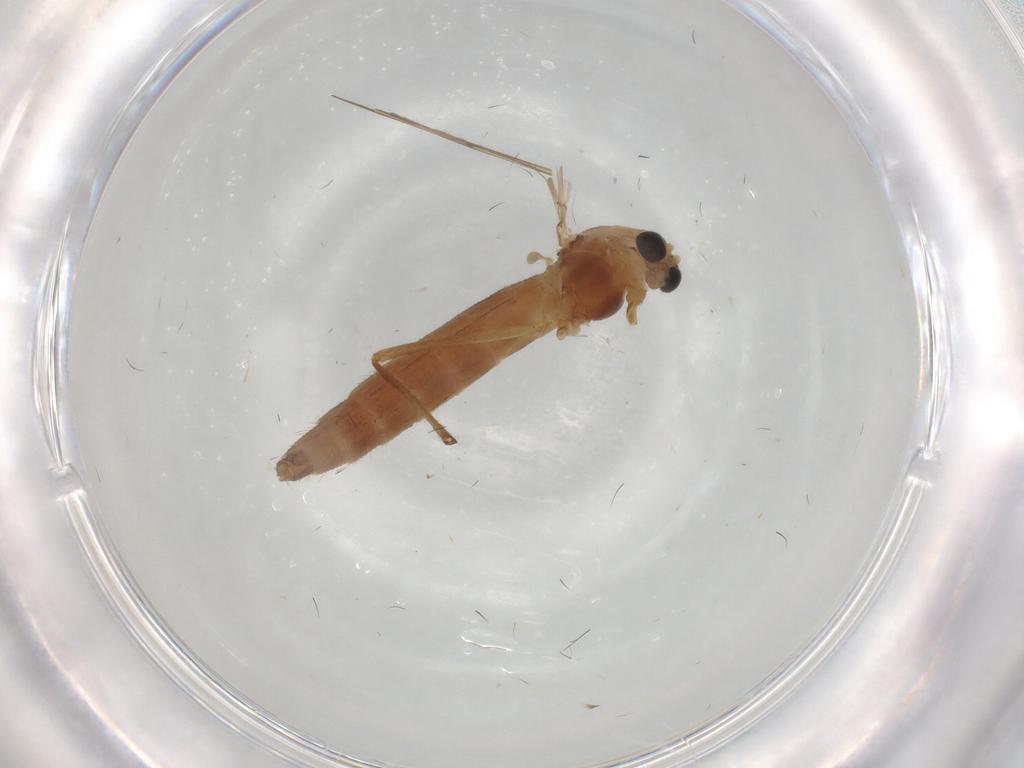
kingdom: Animalia
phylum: Arthropoda
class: Insecta
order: Diptera
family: Chironomidae
